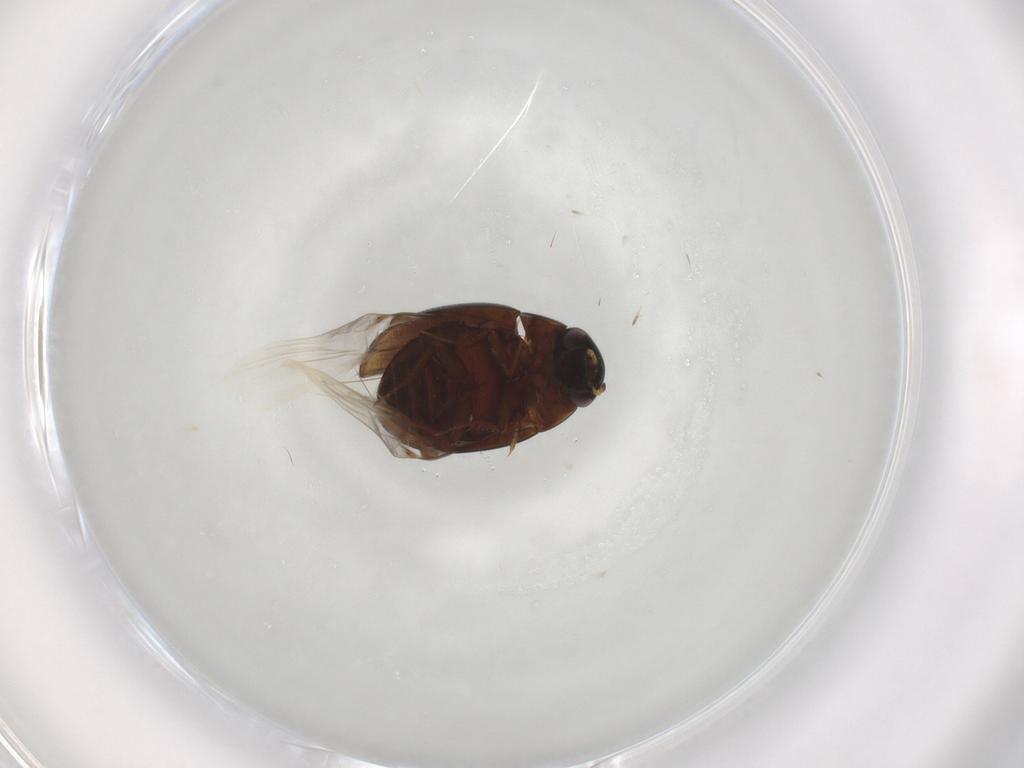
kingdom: Animalia
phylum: Arthropoda
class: Insecta
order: Coleoptera
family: Hydrophilidae
